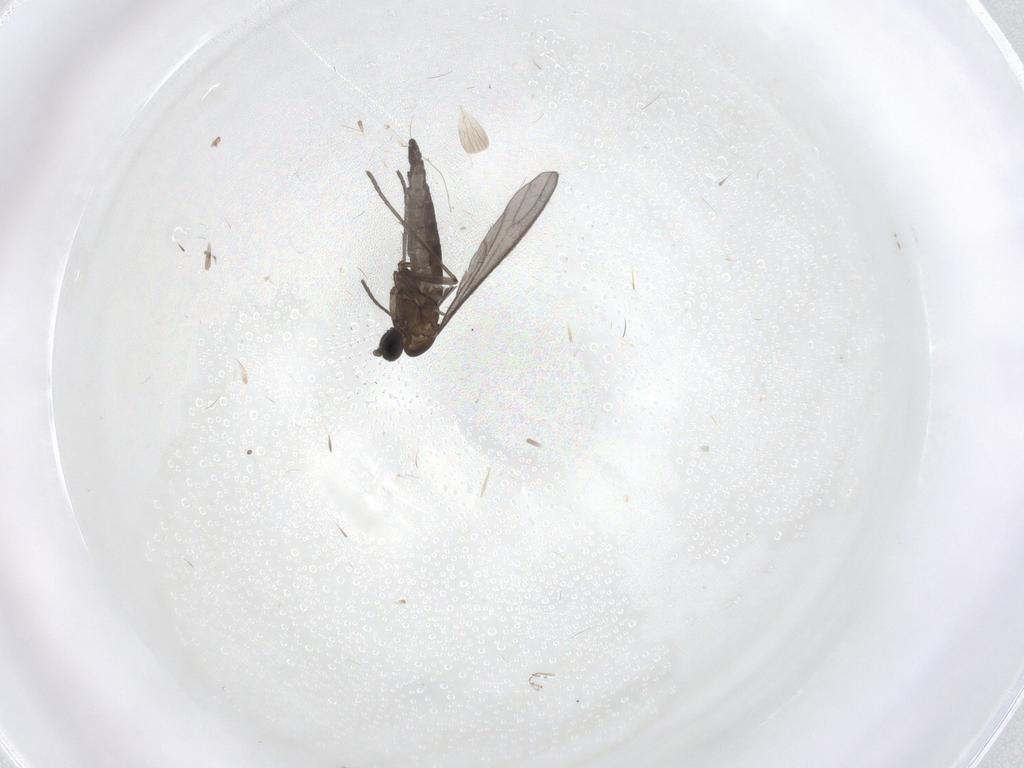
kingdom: Animalia
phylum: Arthropoda
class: Insecta
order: Diptera
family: Sciaridae
